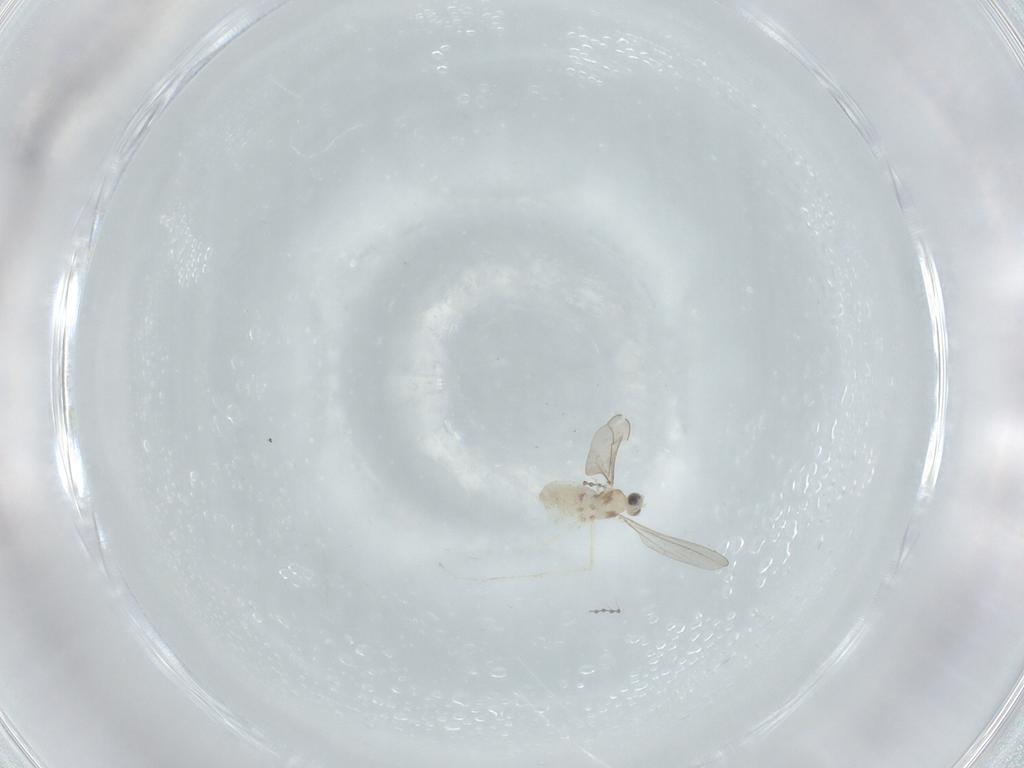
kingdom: Animalia
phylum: Arthropoda
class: Insecta
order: Diptera
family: Cecidomyiidae
